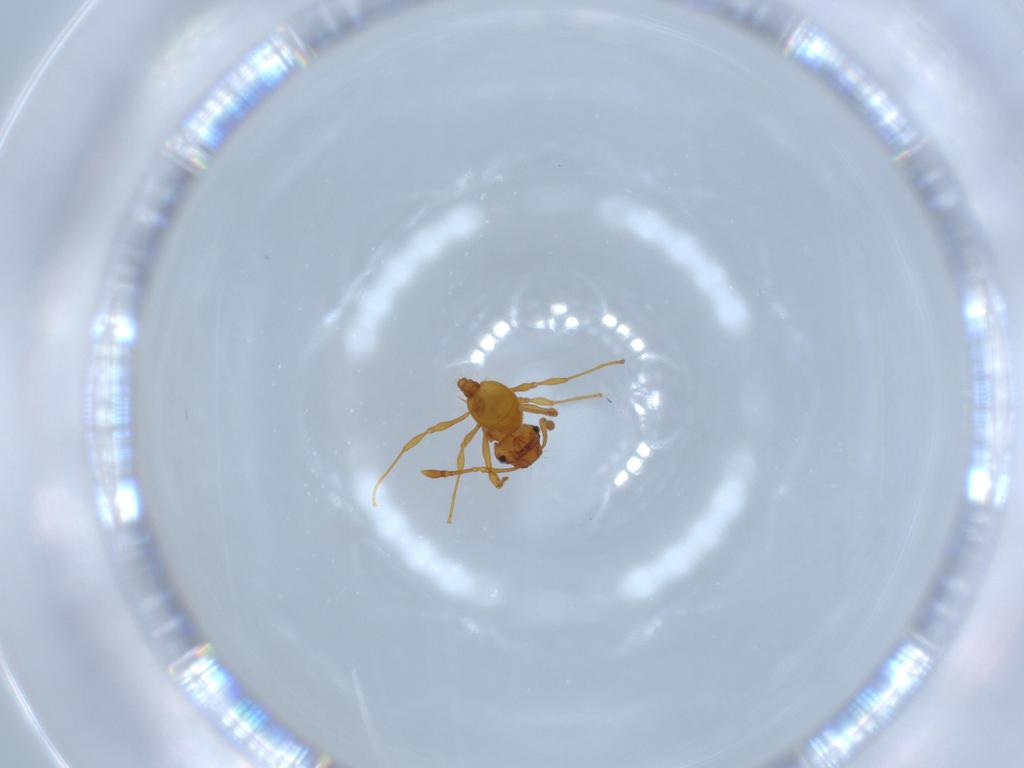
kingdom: Animalia
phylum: Arthropoda
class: Insecta
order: Hymenoptera
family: Formicidae
